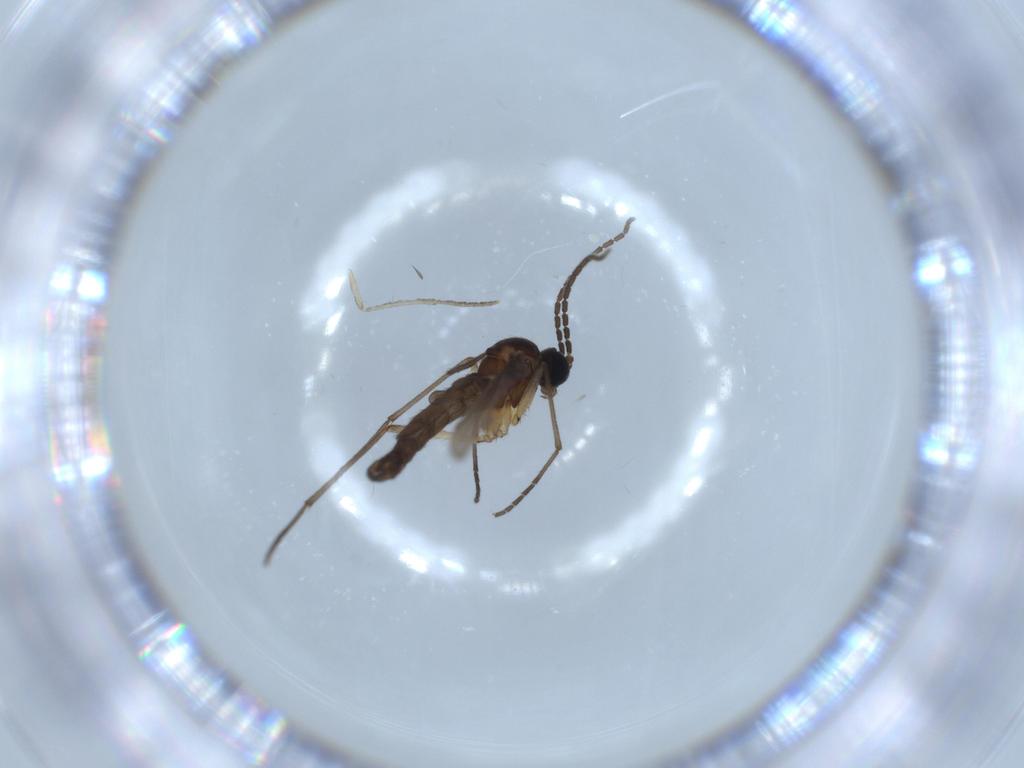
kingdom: Animalia
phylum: Arthropoda
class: Insecta
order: Diptera
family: Sciaridae
